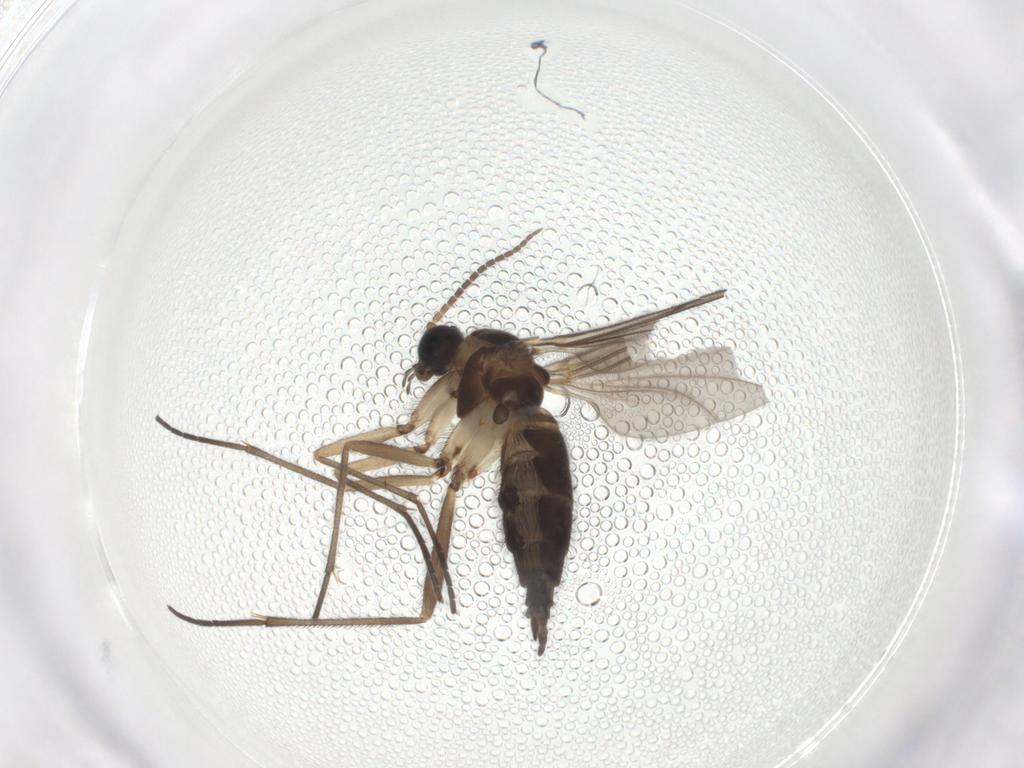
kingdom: Animalia
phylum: Arthropoda
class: Insecta
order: Diptera
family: Sciaridae
